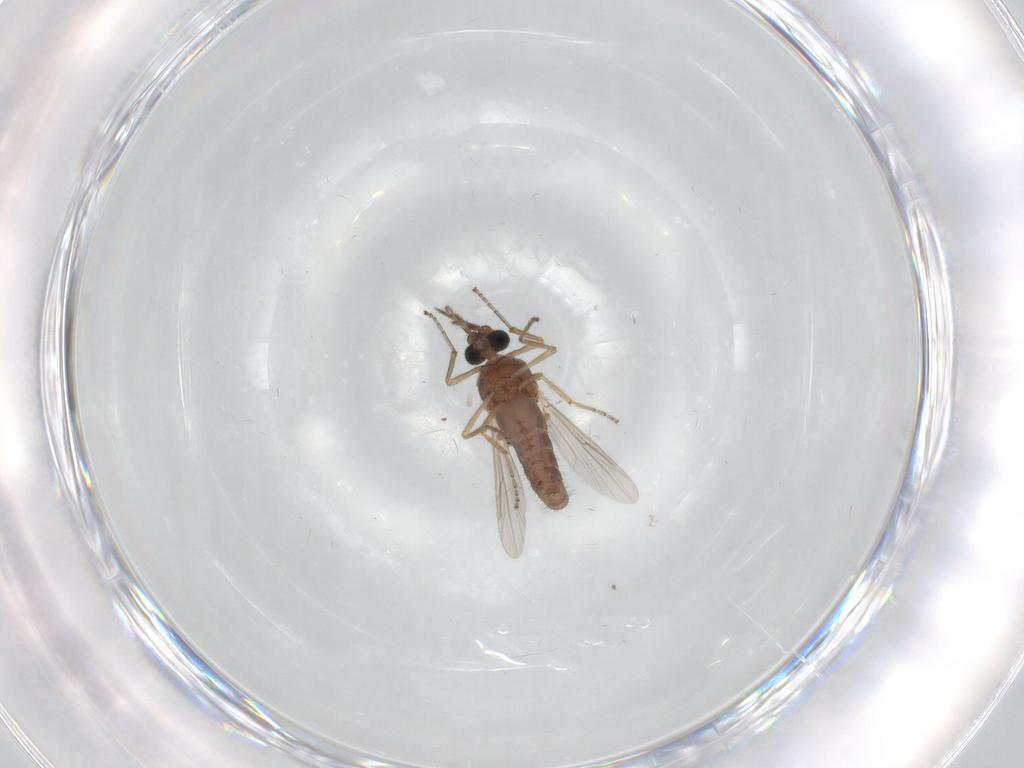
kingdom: Animalia
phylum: Arthropoda
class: Insecta
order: Diptera
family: Ceratopogonidae
